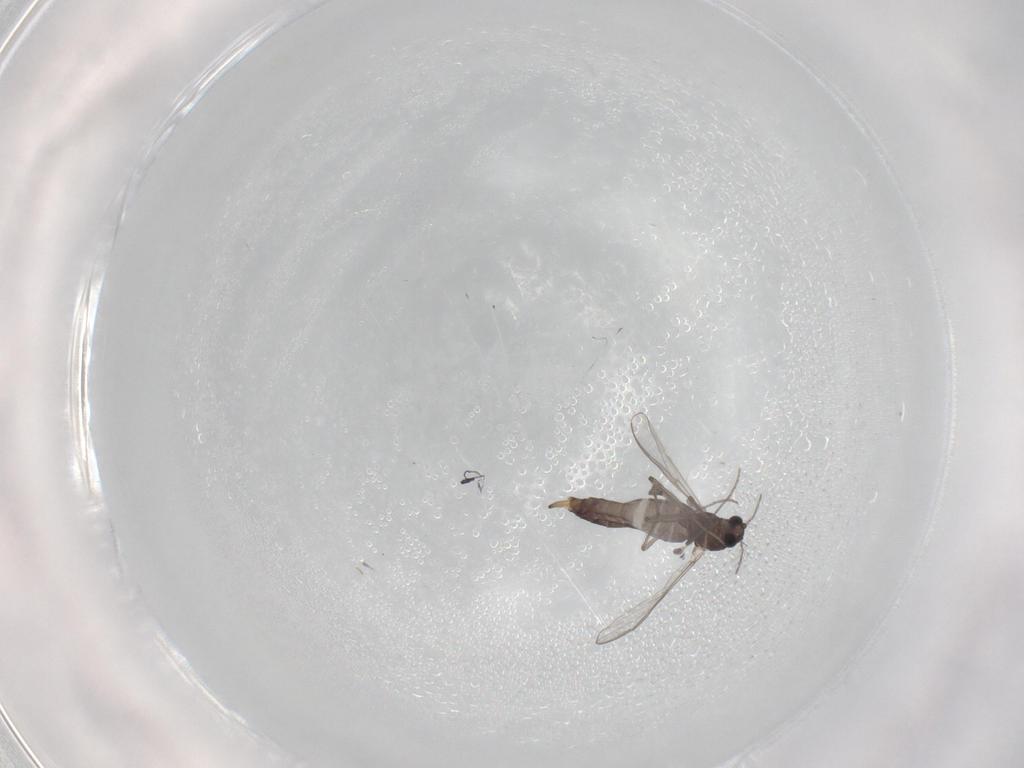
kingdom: Animalia
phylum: Arthropoda
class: Insecta
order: Diptera
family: Chironomidae
